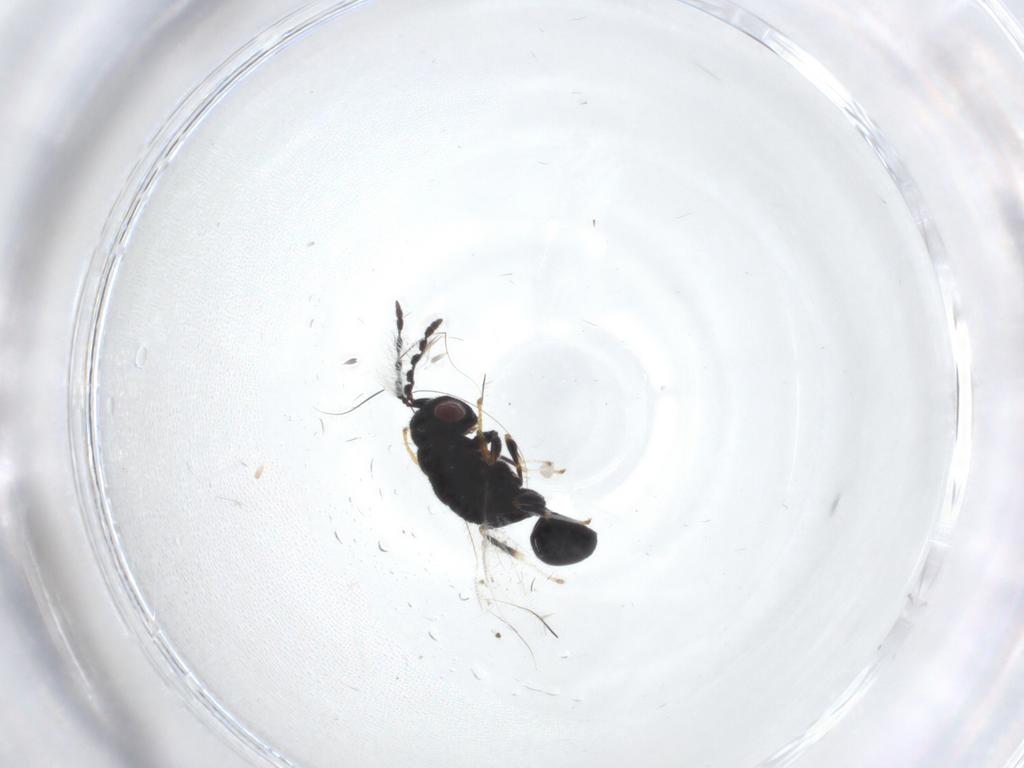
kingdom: Animalia
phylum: Arthropoda
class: Insecta
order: Hymenoptera
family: Eurytomidae
